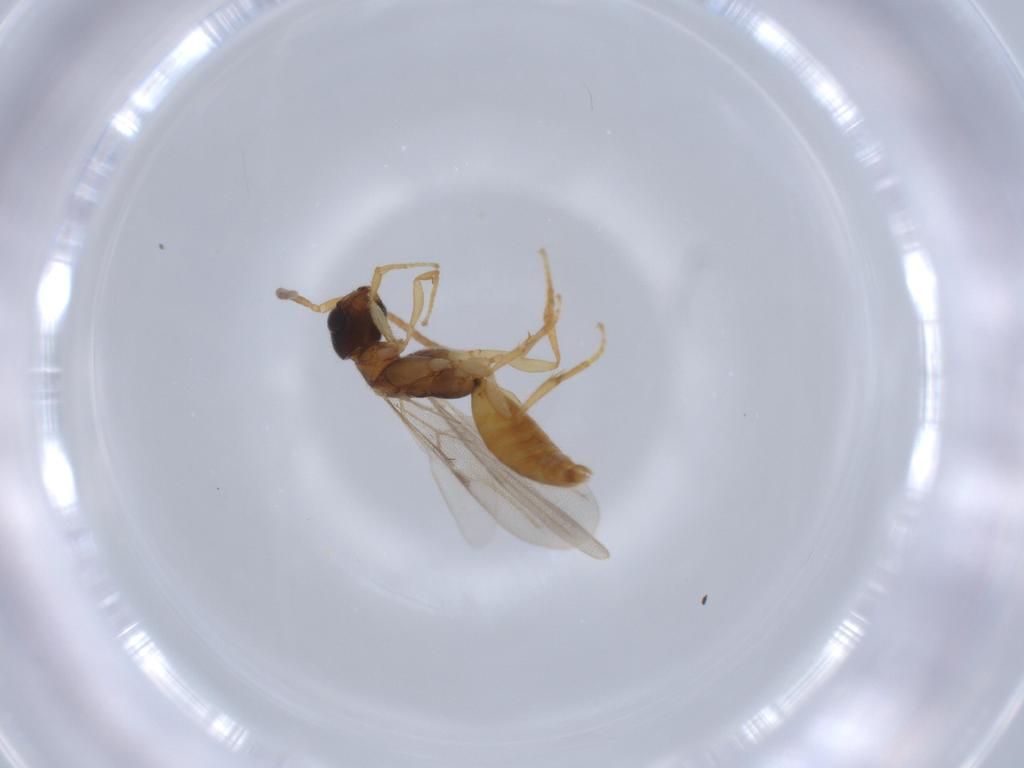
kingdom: Animalia
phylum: Arthropoda
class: Insecta
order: Hymenoptera
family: Bethylidae
